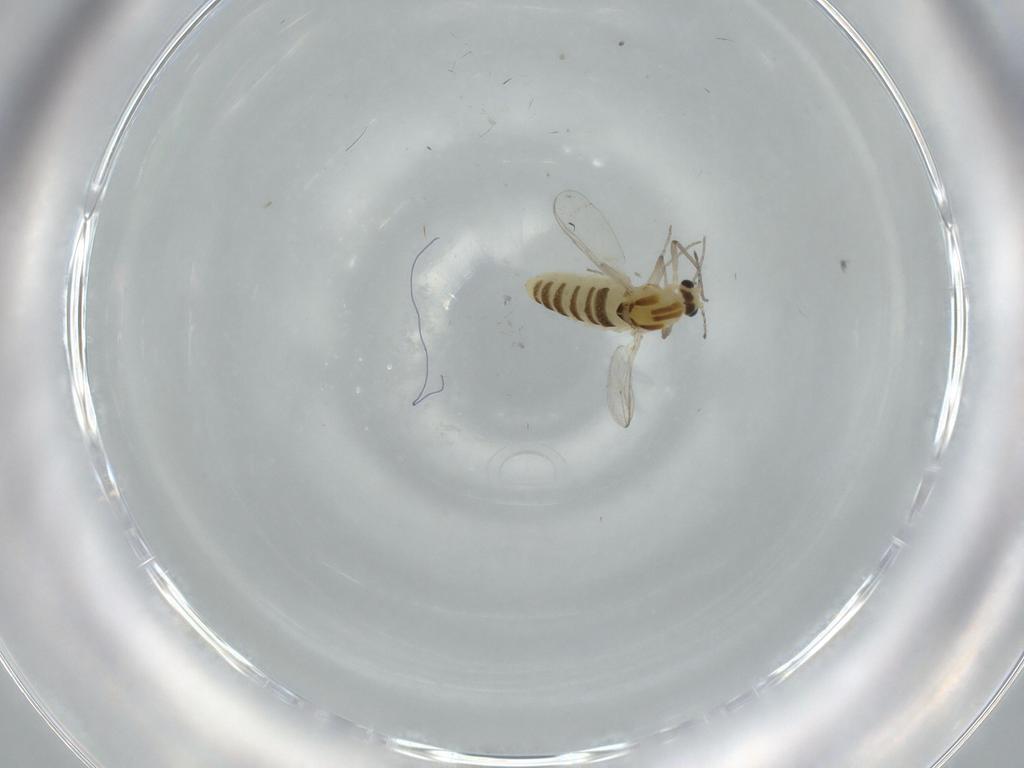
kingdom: Animalia
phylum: Arthropoda
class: Insecta
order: Diptera
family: Chironomidae
